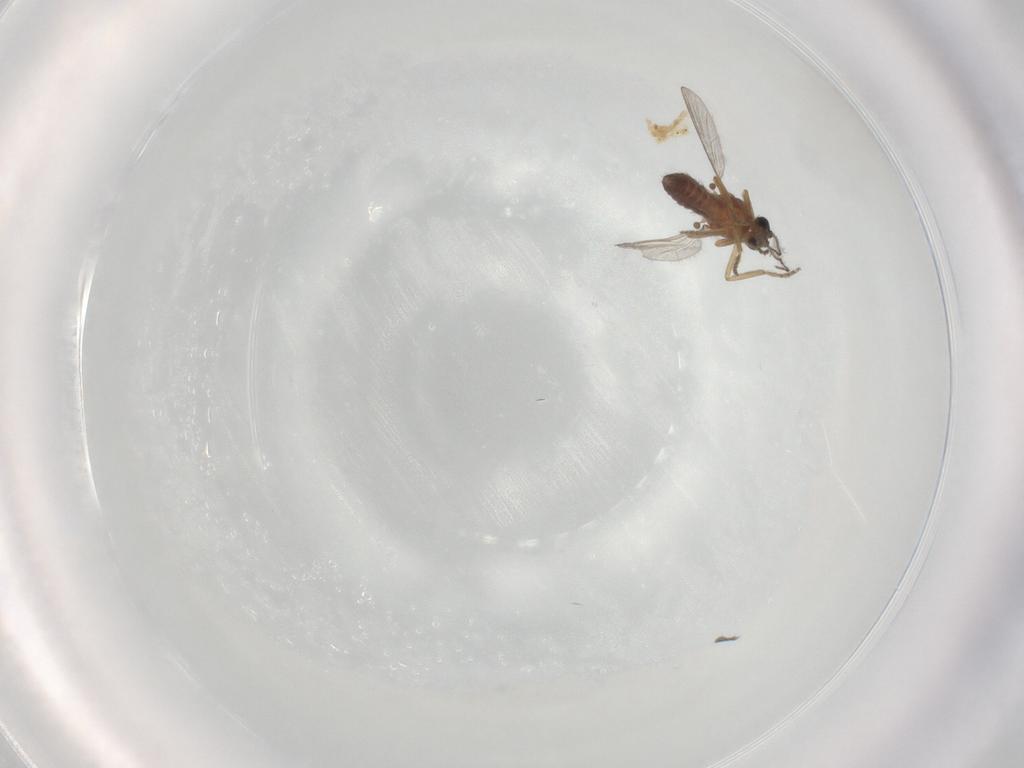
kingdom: Animalia
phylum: Arthropoda
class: Insecta
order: Diptera
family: Ceratopogonidae
